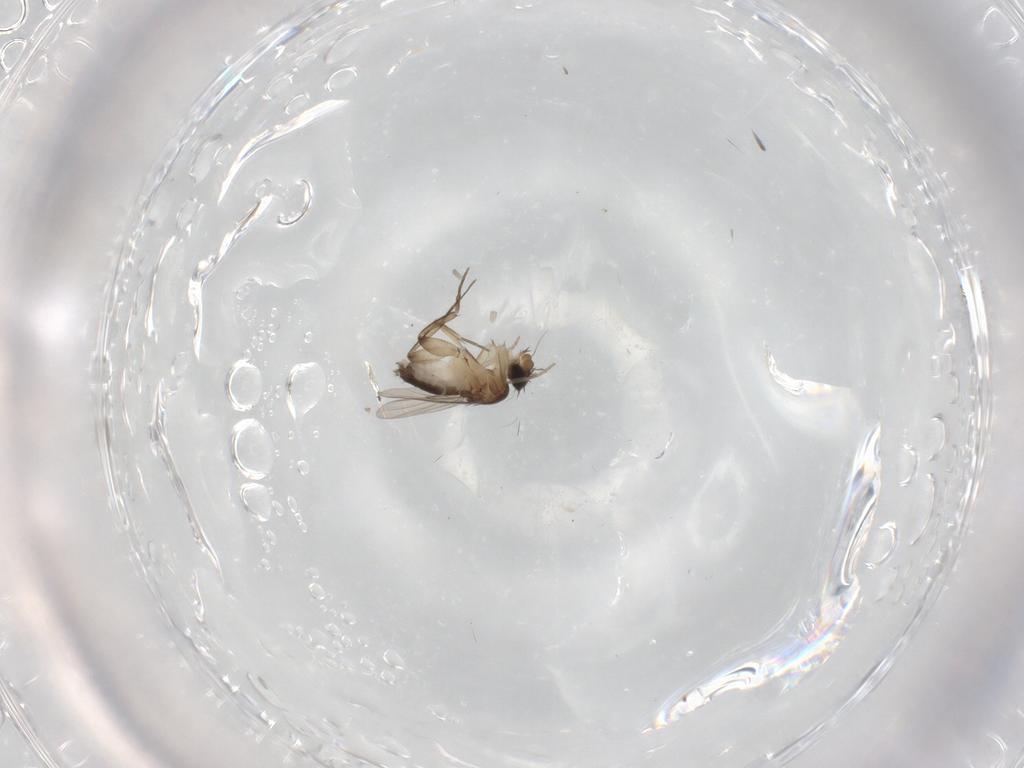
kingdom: Animalia
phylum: Arthropoda
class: Insecta
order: Diptera
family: Phoridae
